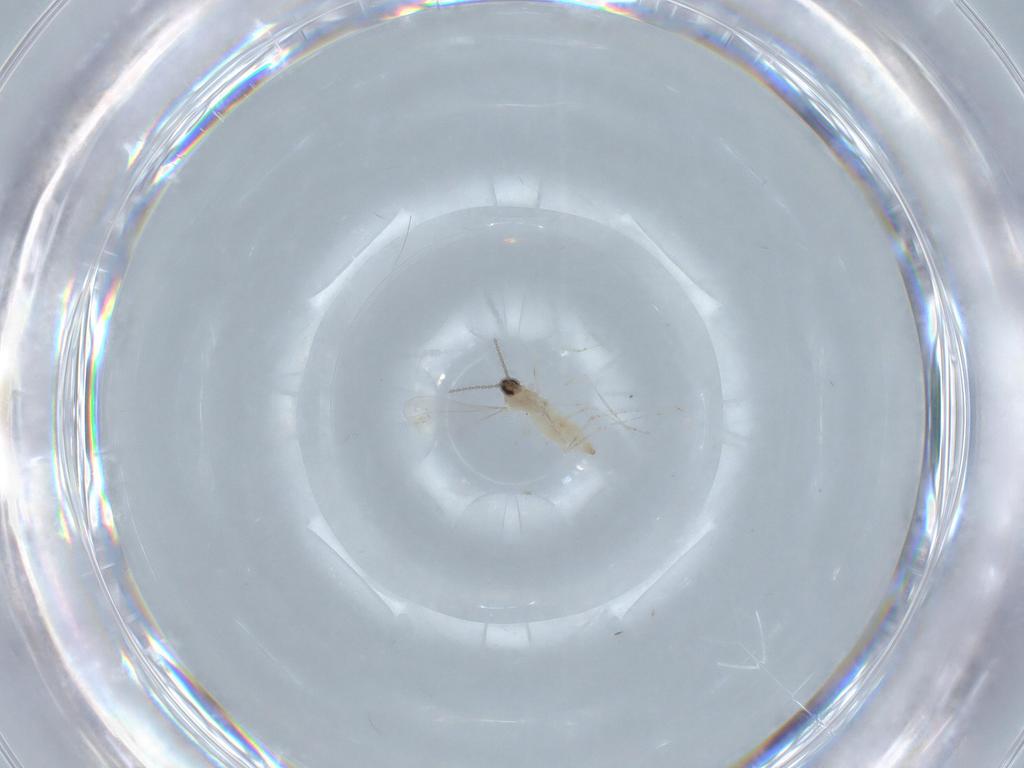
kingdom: Animalia
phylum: Arthropoda
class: Insecta
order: Diptera
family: Cecidomyiidae
